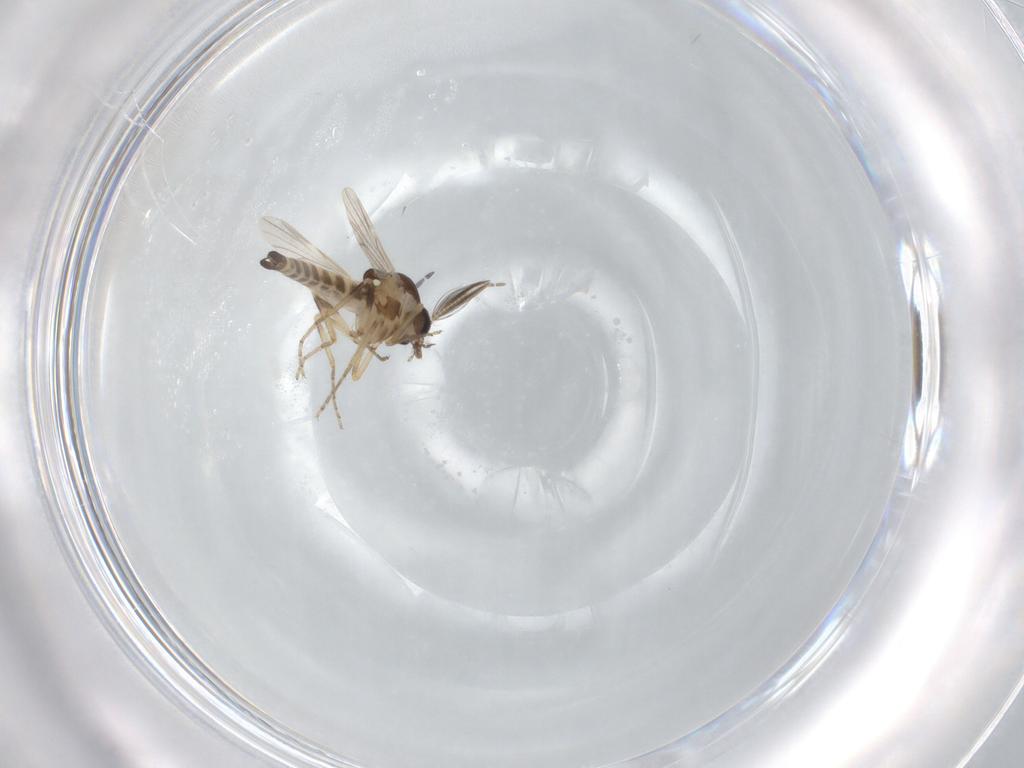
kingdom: Animalia
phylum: Arthropoda
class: Insecta
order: Diptera
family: Ceratopogonidae
